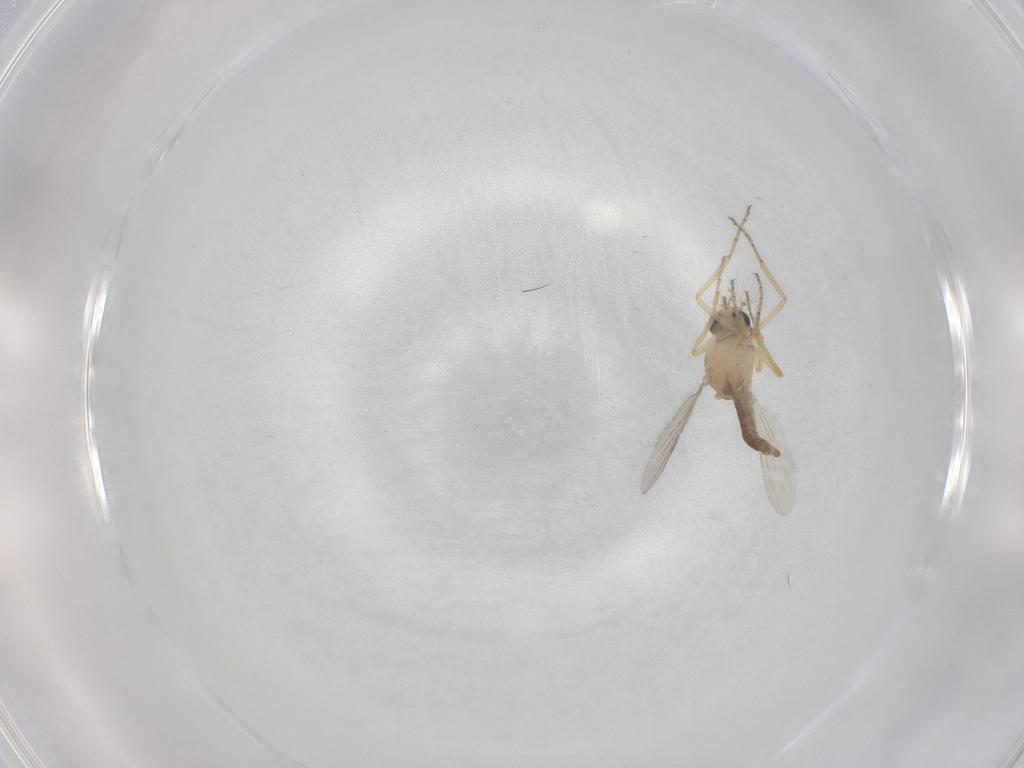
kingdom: Animalia
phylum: Arthropoda
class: Insecta
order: Diptera
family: Ceratopogonidae
